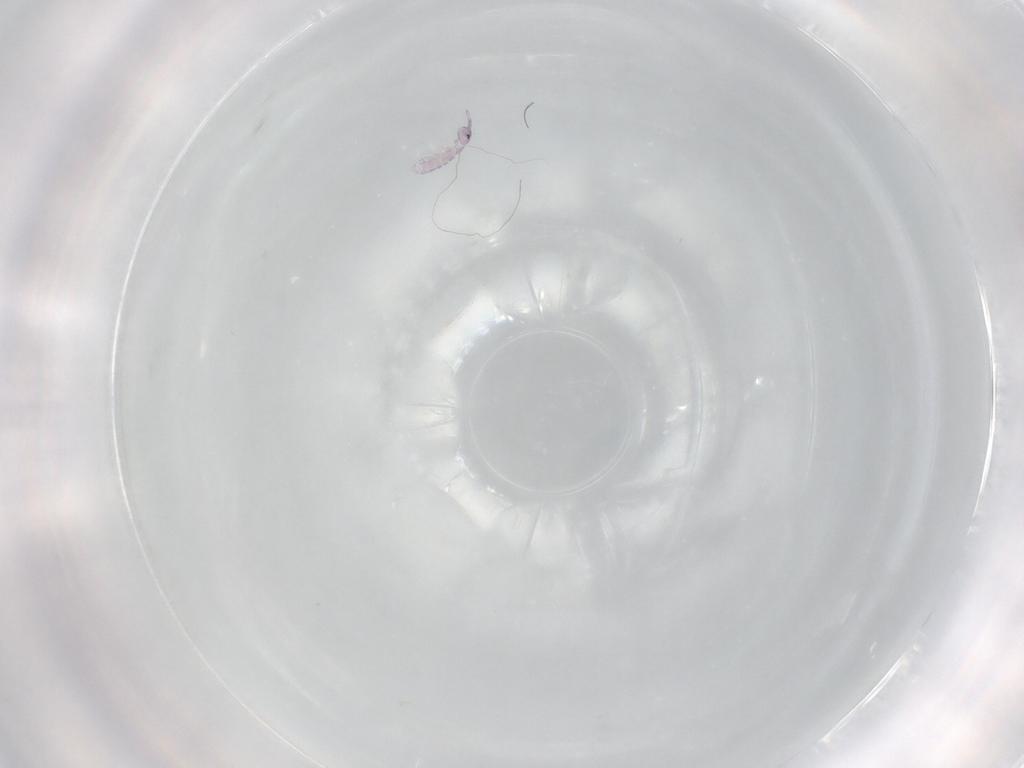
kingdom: Animalia
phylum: Arthropoda
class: Collembola
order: Entomobryomorpha
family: Isotomidae
